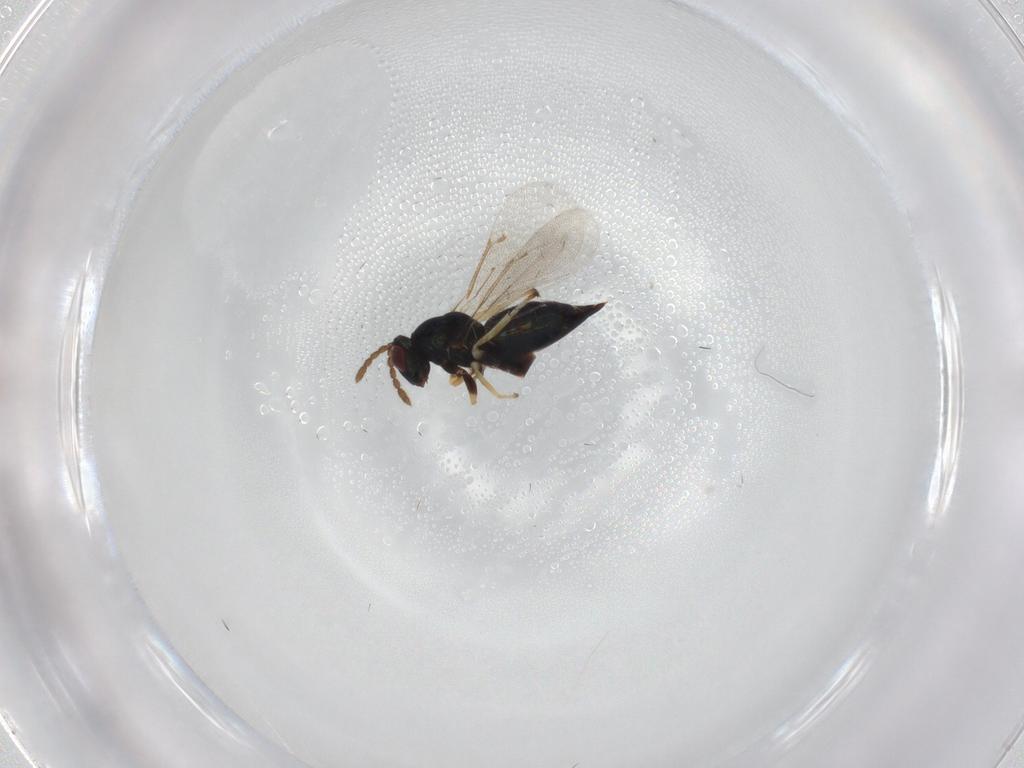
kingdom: Animalia
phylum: Arthropoda
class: Insecta
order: Hymenoptera
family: Eulophidae
